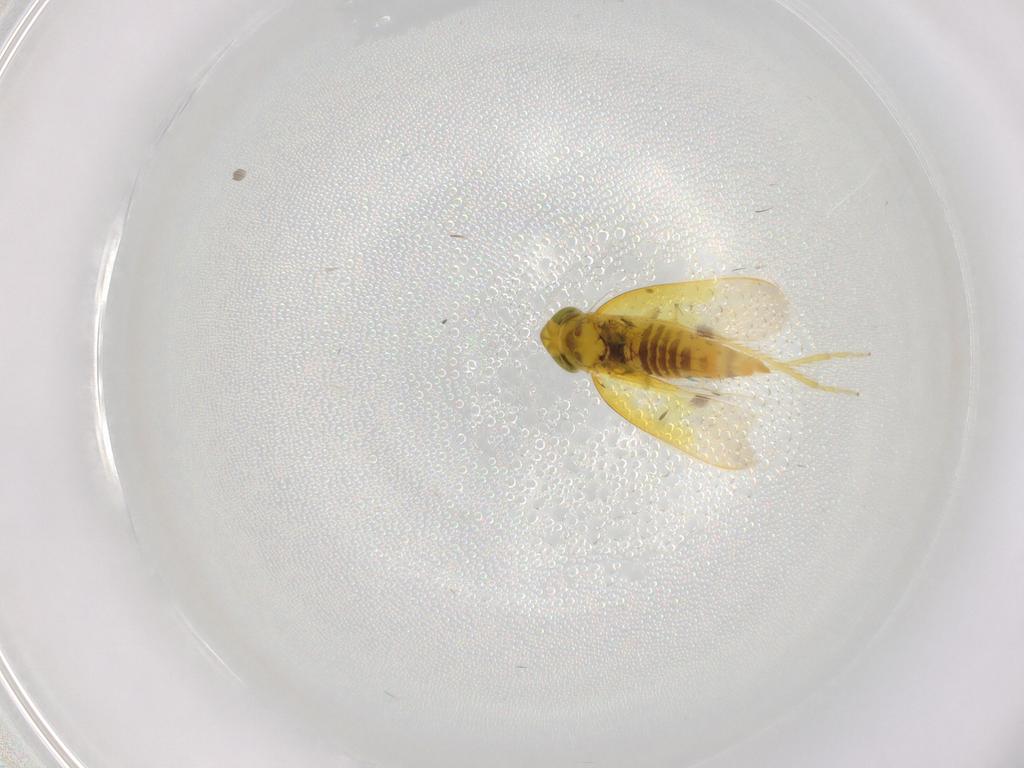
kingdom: Animalia
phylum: Arthropoda
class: Insecta
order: Hemiptera
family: Cicadellidae
